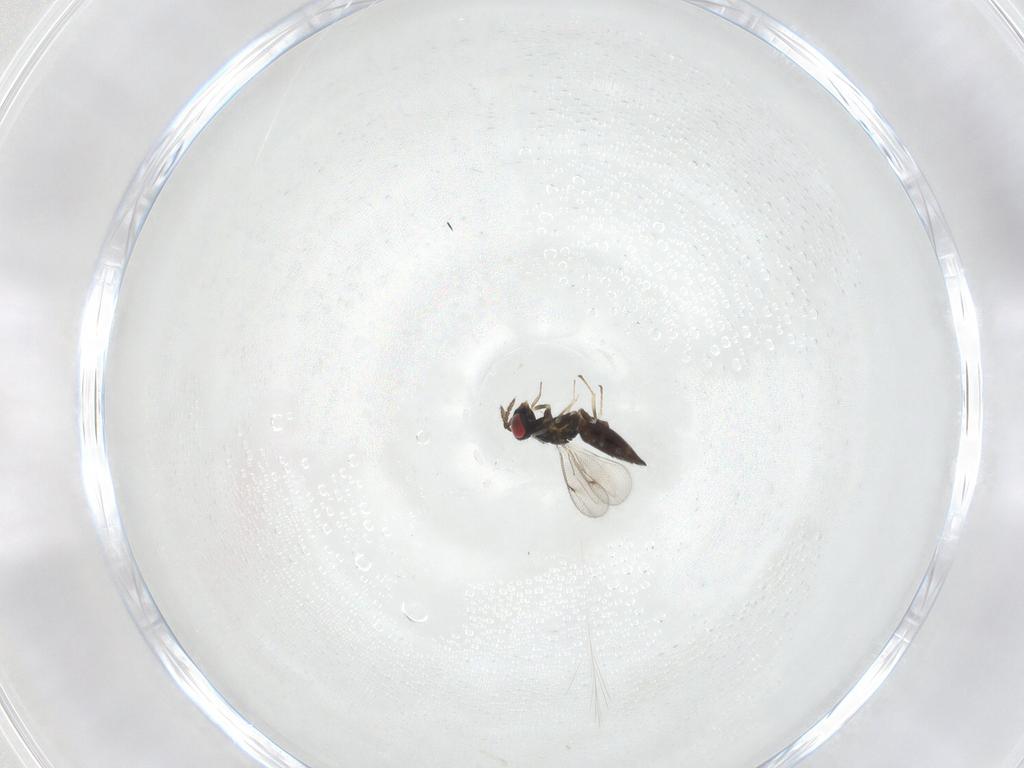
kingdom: Animalia
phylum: Arthropoda
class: Insecta
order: Hymenoptera
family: Eulophidae
